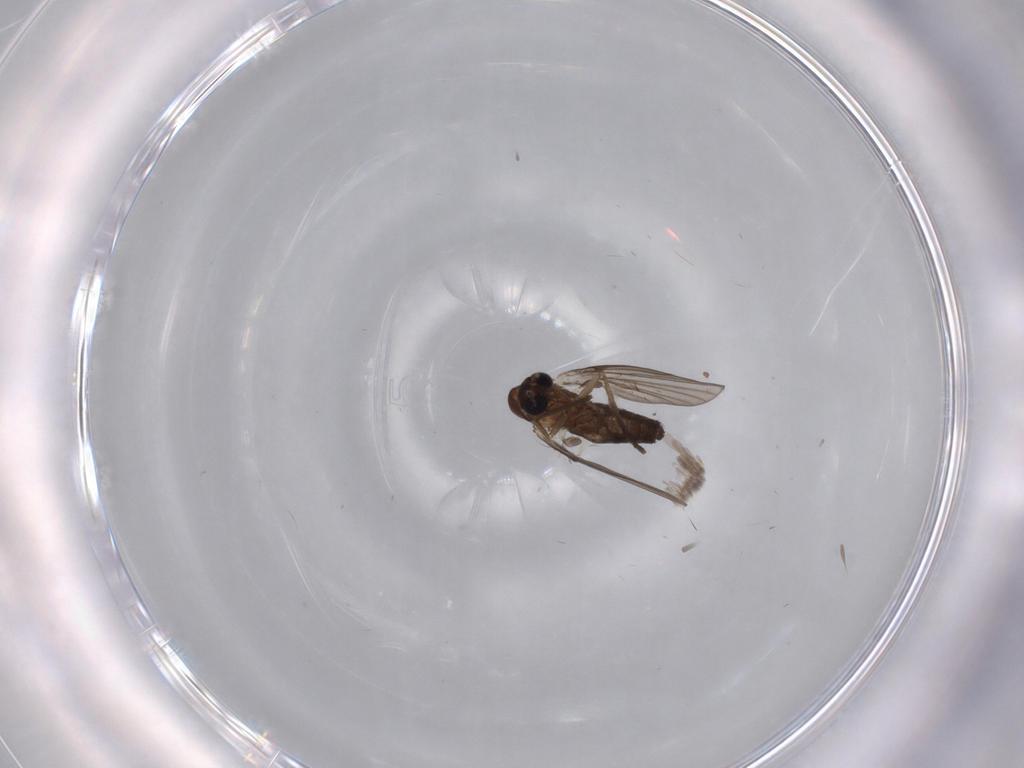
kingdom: Animalia
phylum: Arthropoda
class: Insecta
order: Diptera
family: Psychodidae
